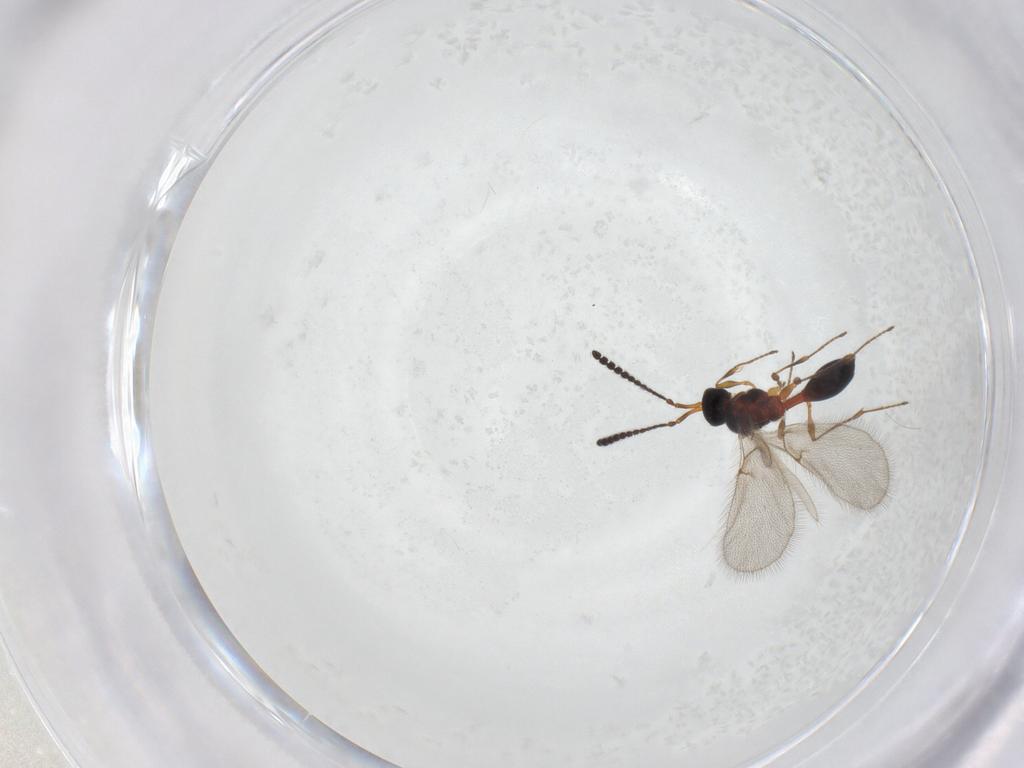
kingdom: Animalia
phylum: Arthropoda
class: Insecta
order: Hymenoptera
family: Diapriidae
